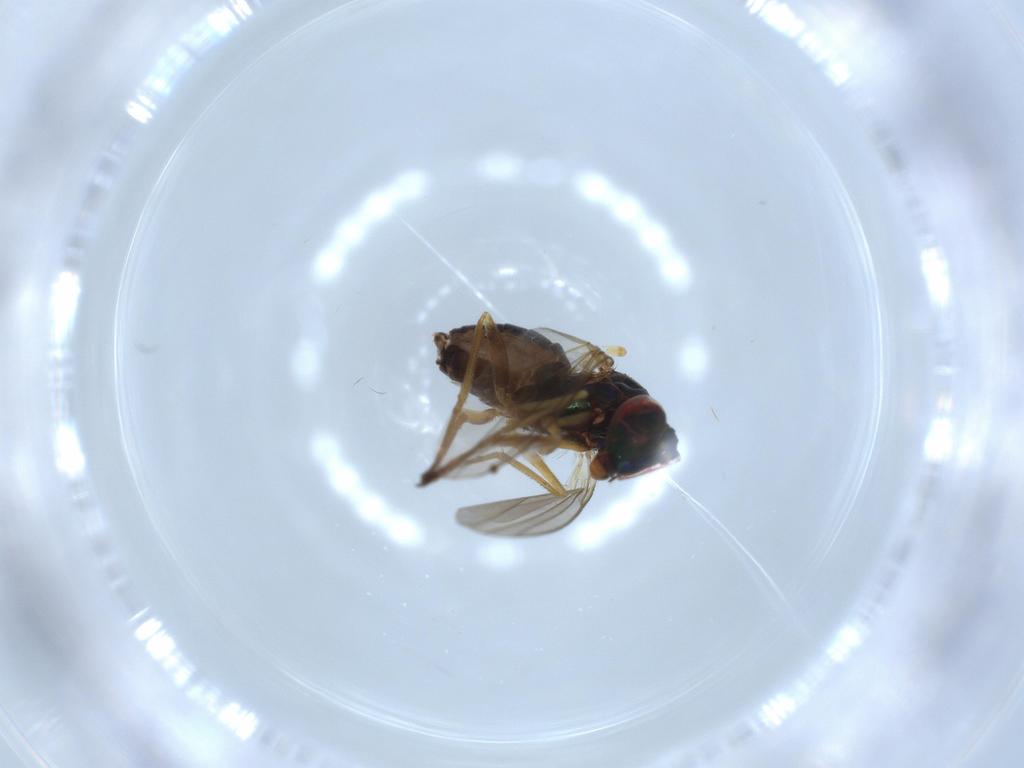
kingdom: Animalia
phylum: Arthropoda
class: Insecta
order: Diptera
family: Dolichopodidae
